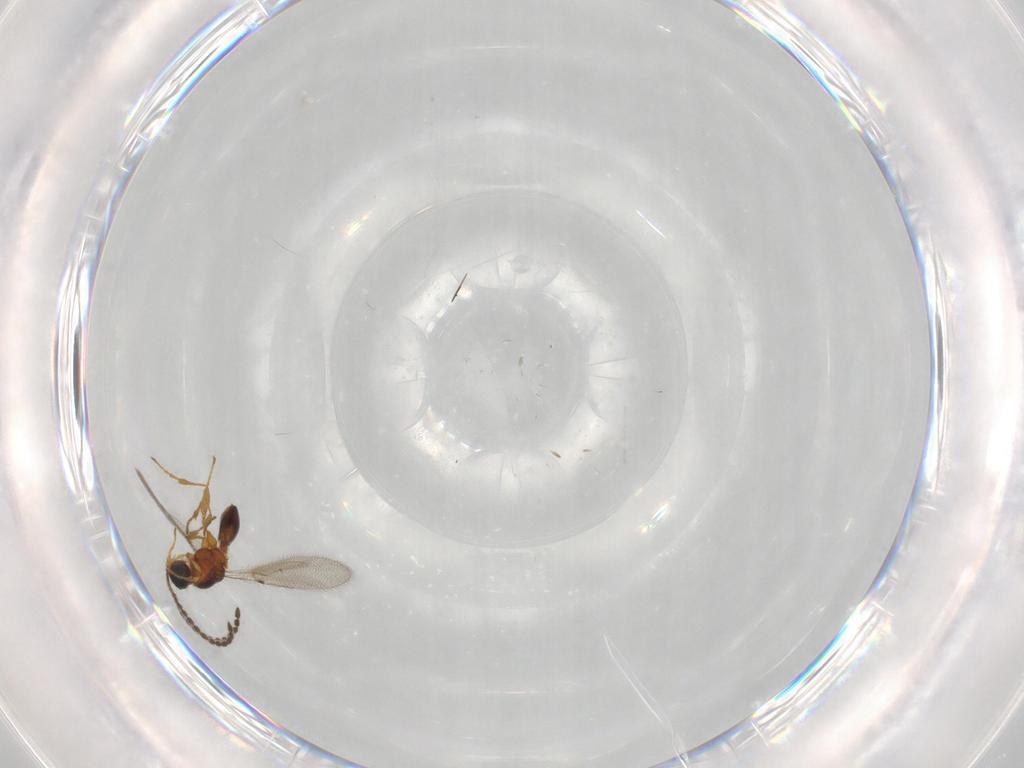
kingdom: Animalia
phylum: Arthropoda
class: Insecta
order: Hymenoptera
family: Diapriidae
